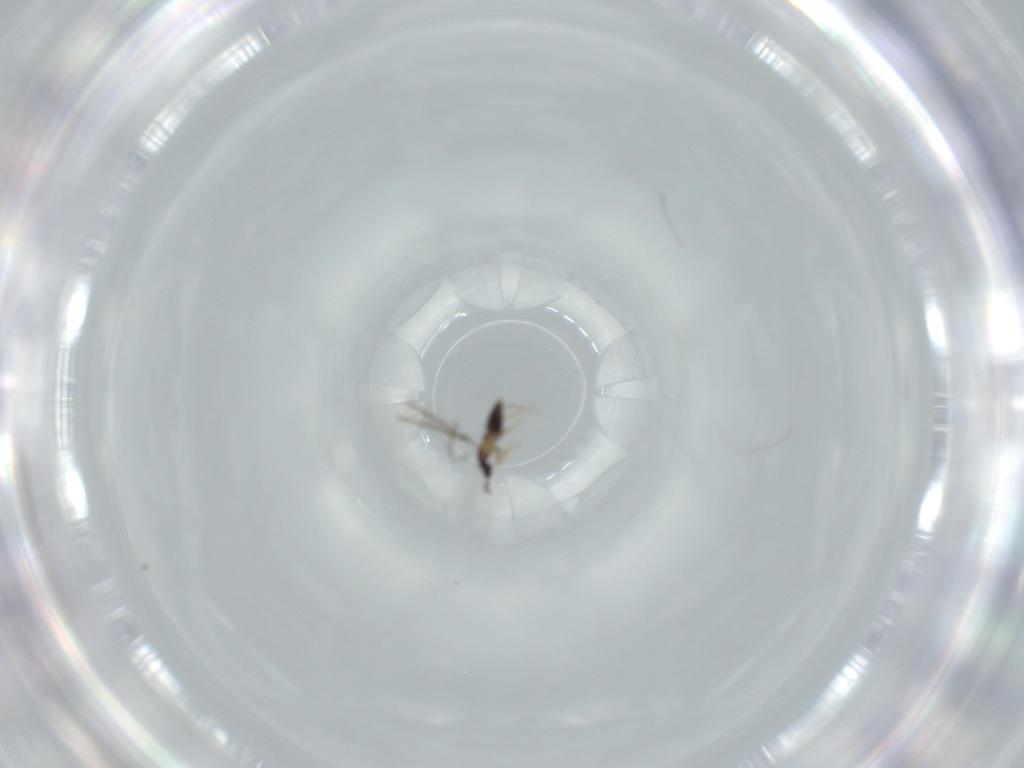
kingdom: Animalia
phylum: Arthropoda
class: Insecta
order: Hymenoptera
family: Mymaridae
